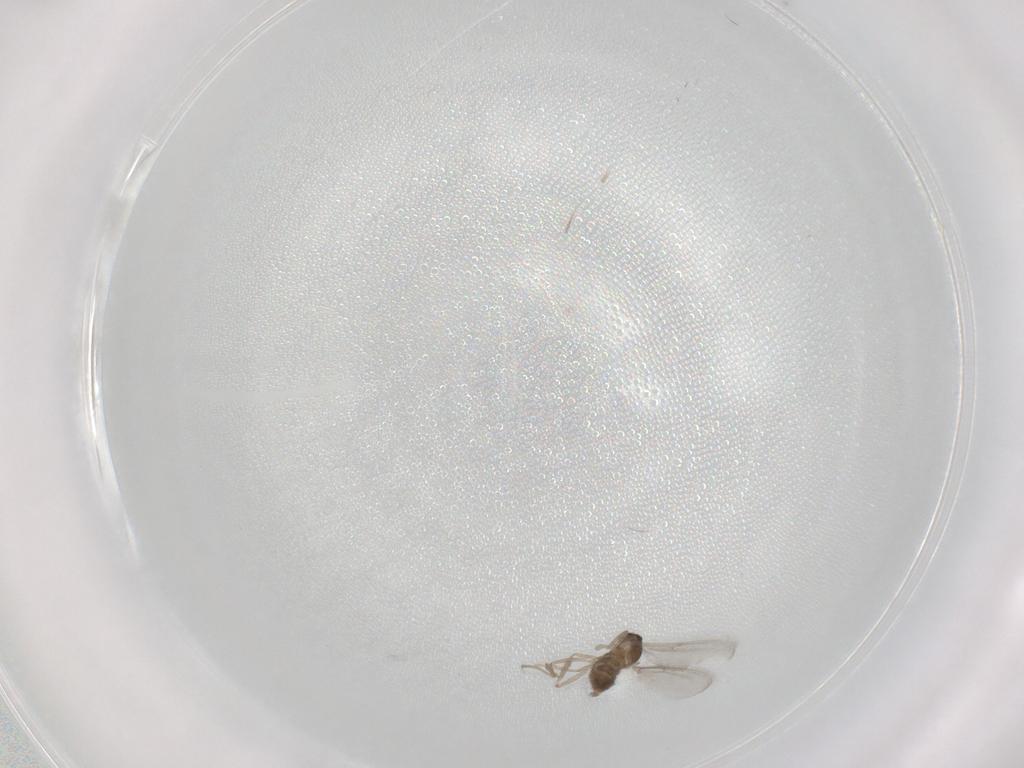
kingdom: Animalia
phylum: Arthropoda
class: Insecta
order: Diptera
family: Cecidomyiidae
